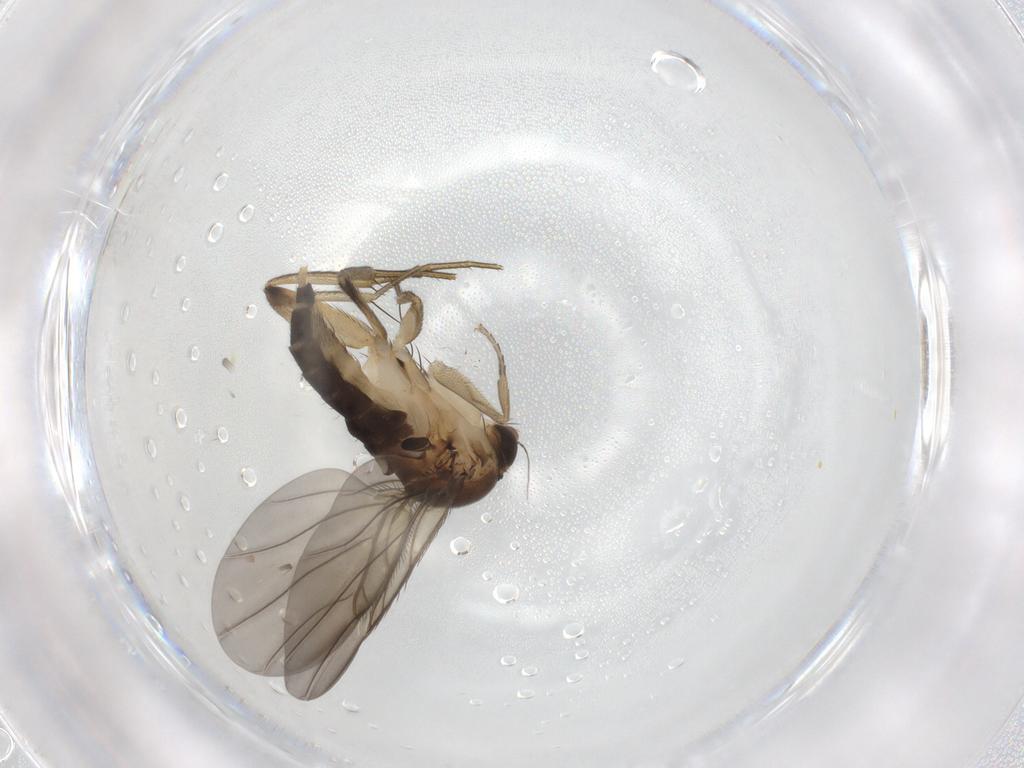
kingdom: Animalia
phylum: Arthropoda
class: Insecta
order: Diptera
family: Phoridae
